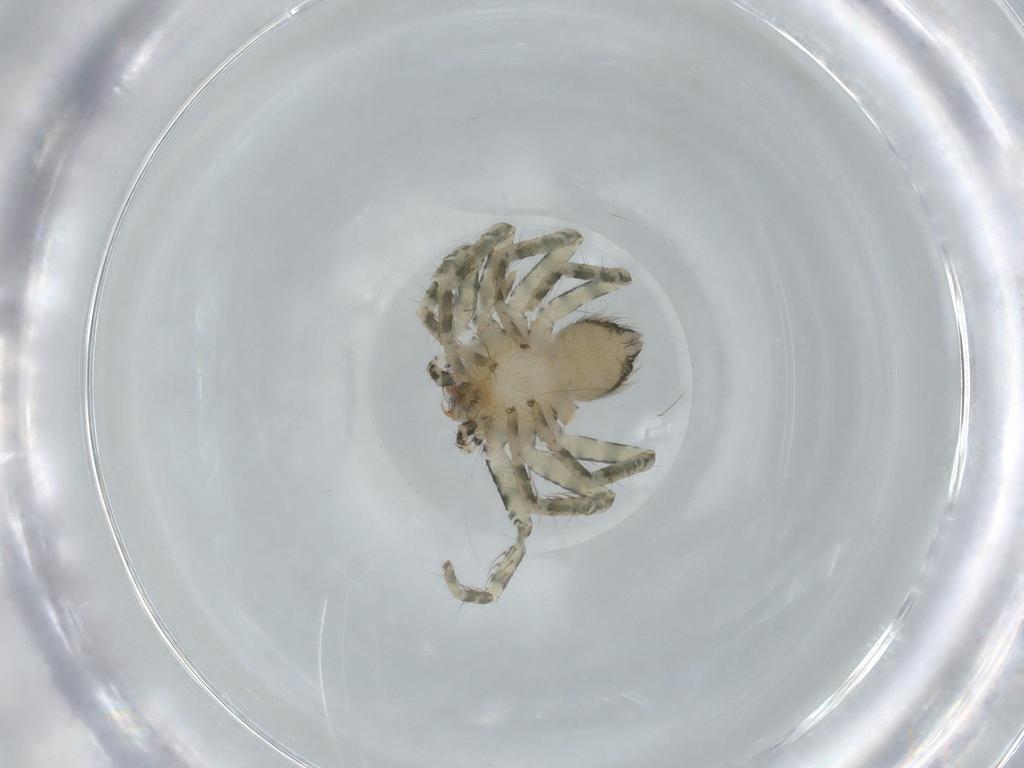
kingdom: Animalia
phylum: Arthropoda
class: Arachnida
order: Araneae
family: Selenopidae
